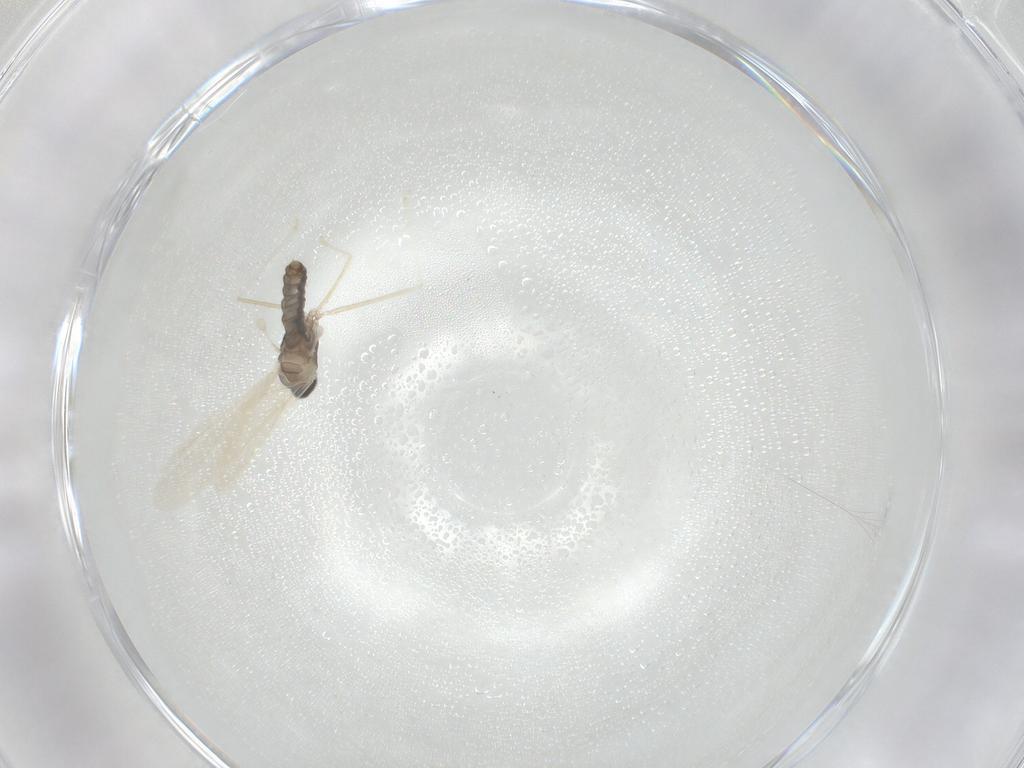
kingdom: Animalia
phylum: Arthropoda
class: Insecta
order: Diptera
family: Cecidomyiidae
